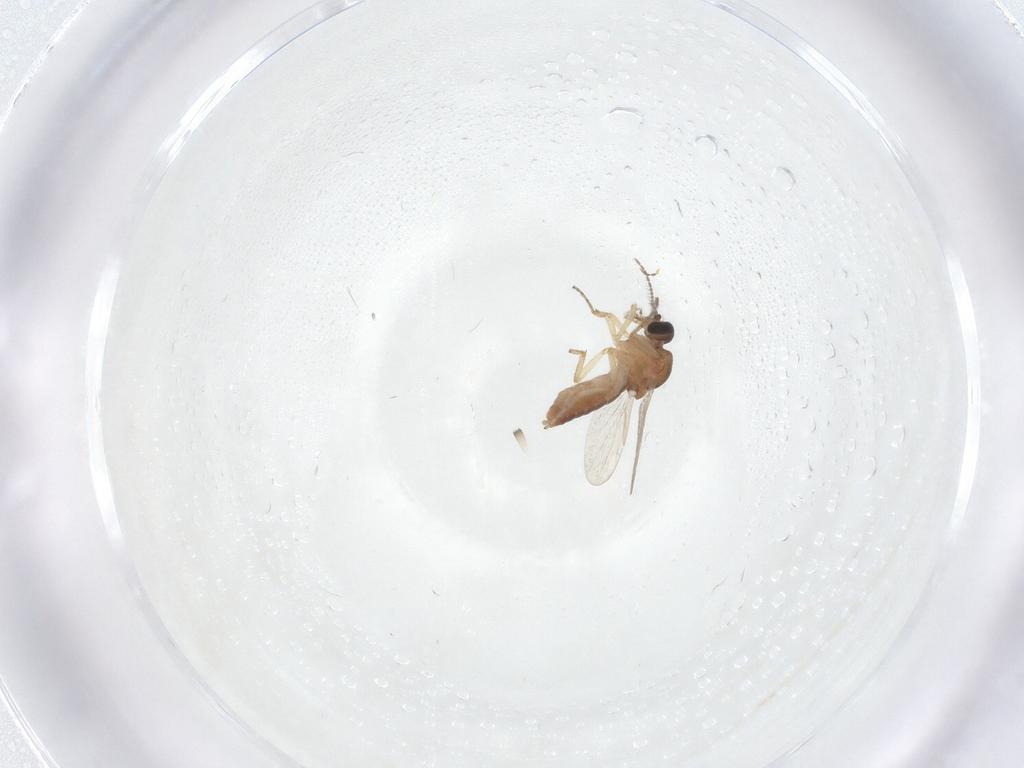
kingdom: Animalia
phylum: Arthropoda
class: Insecta
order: Diptera
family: Ceratopogonidae
